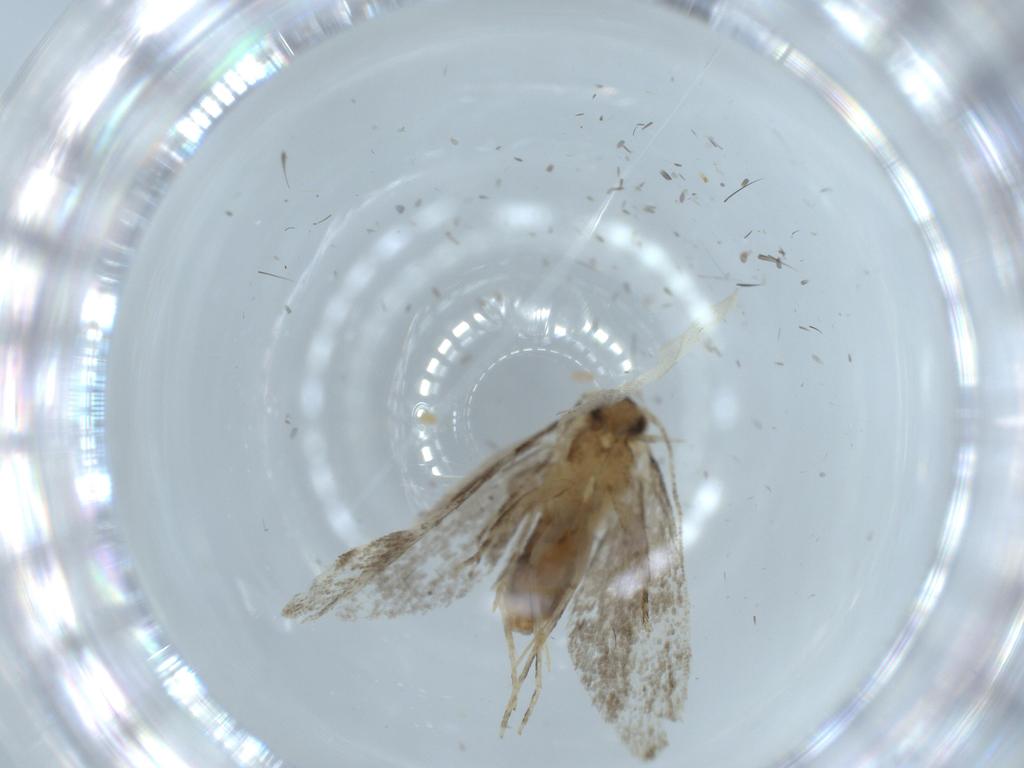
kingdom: Animalia
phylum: Arthropoda
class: Insecta
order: Lepidoptera
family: Tineidae
